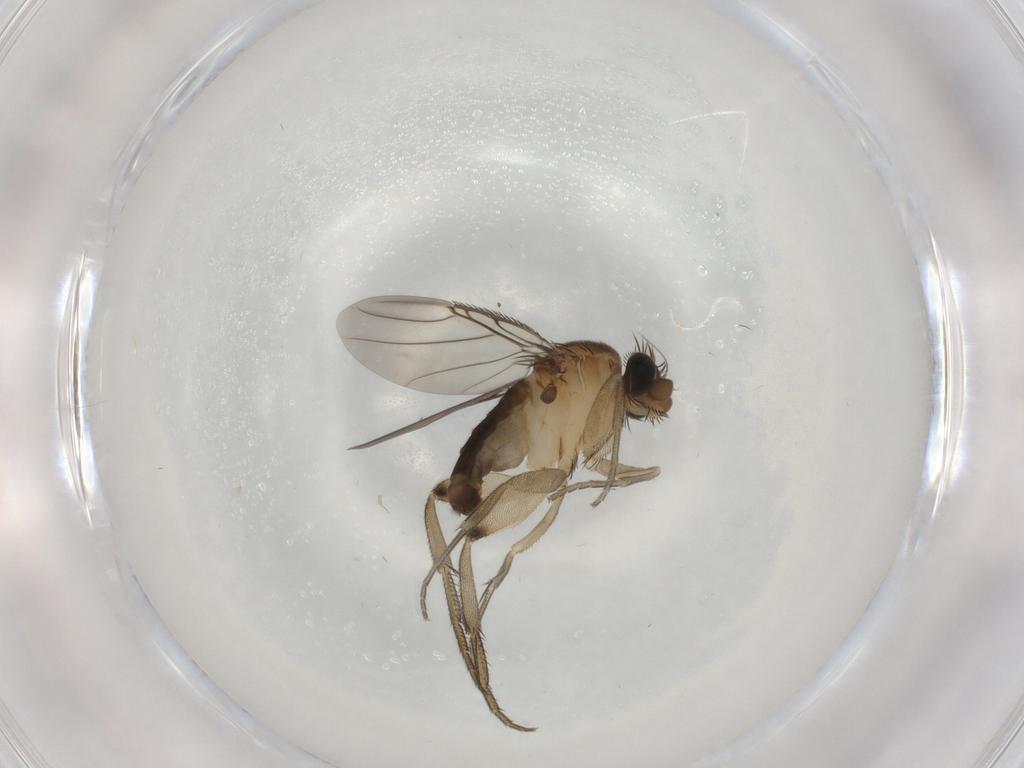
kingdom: Animalia
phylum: Arthropoda
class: Insecta
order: Diptera
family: Phoridae
